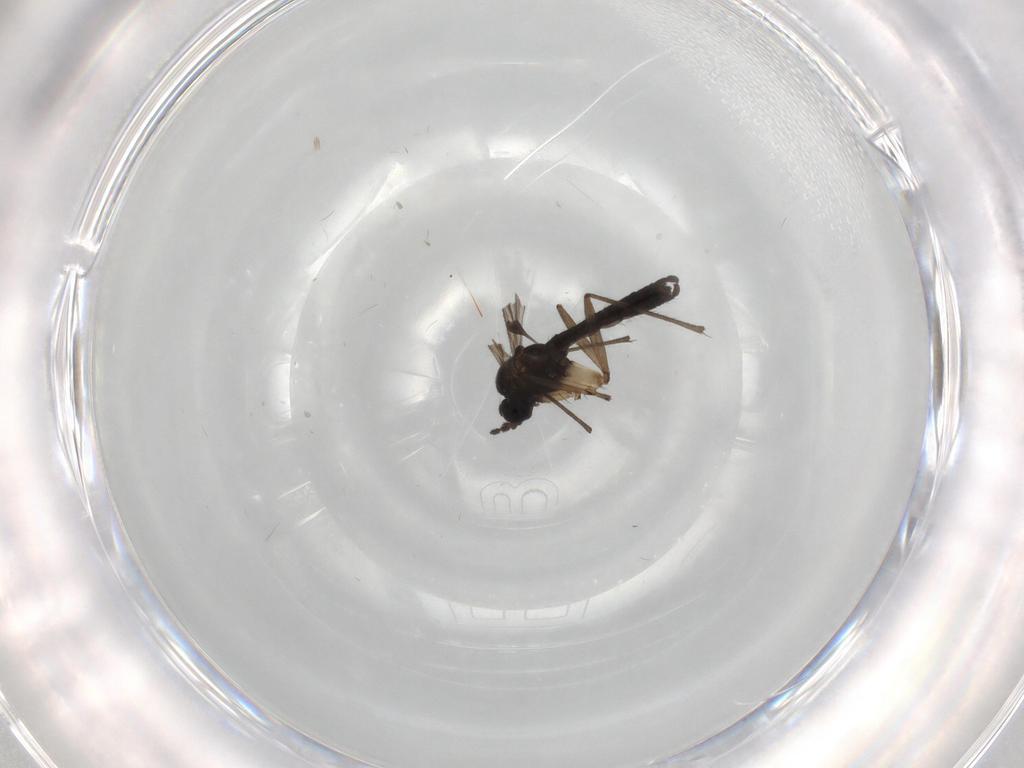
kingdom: Animalia
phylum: Arthropoda
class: Insecta
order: Diptera
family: Sciaridae
